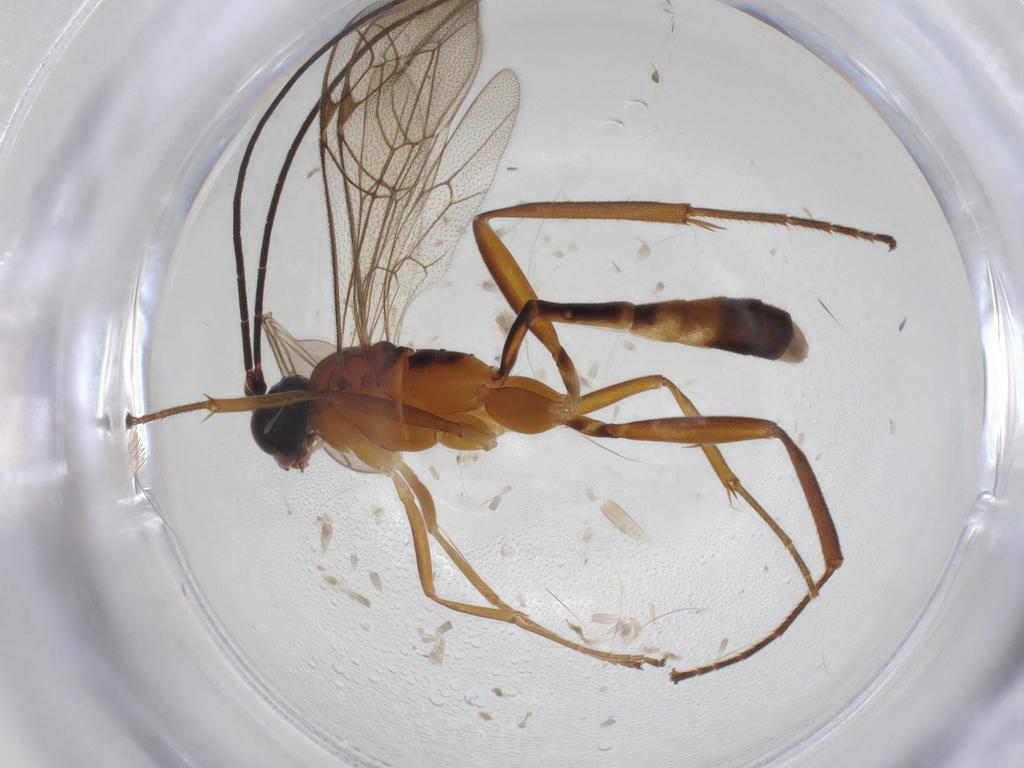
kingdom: Animalia
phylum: Arthropoda
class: Insecta
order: Hymenoptera
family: Ichneumonidae
